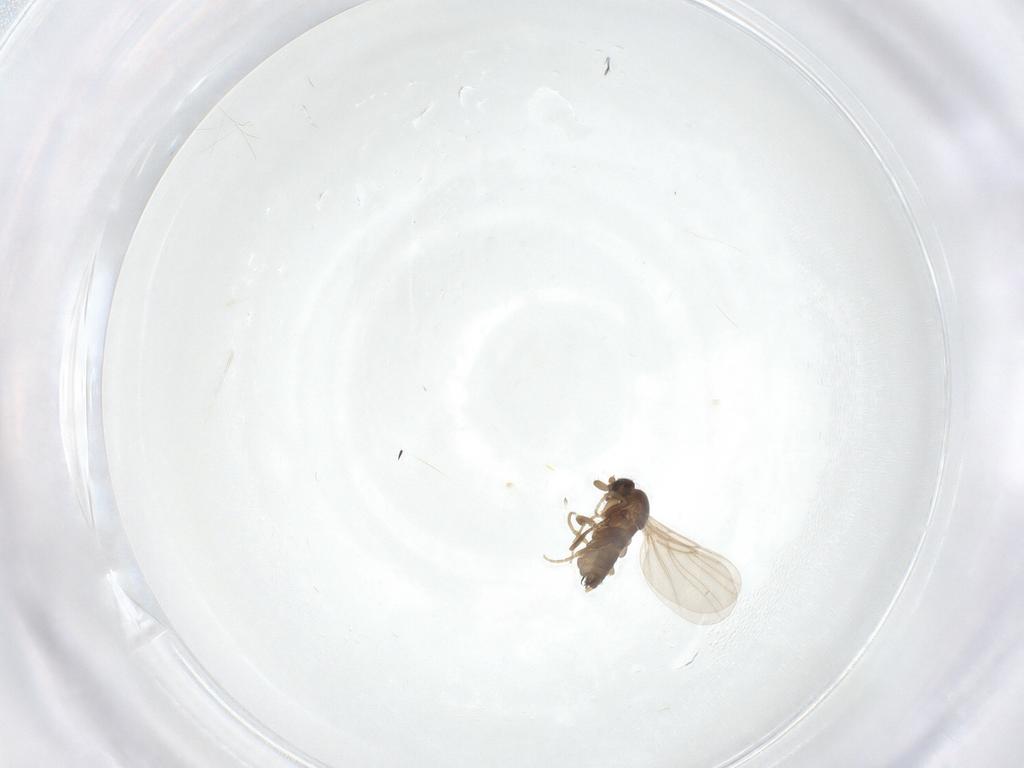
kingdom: Animalia
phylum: Arthropoda
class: Insecta
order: Diptera
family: Phoridae
